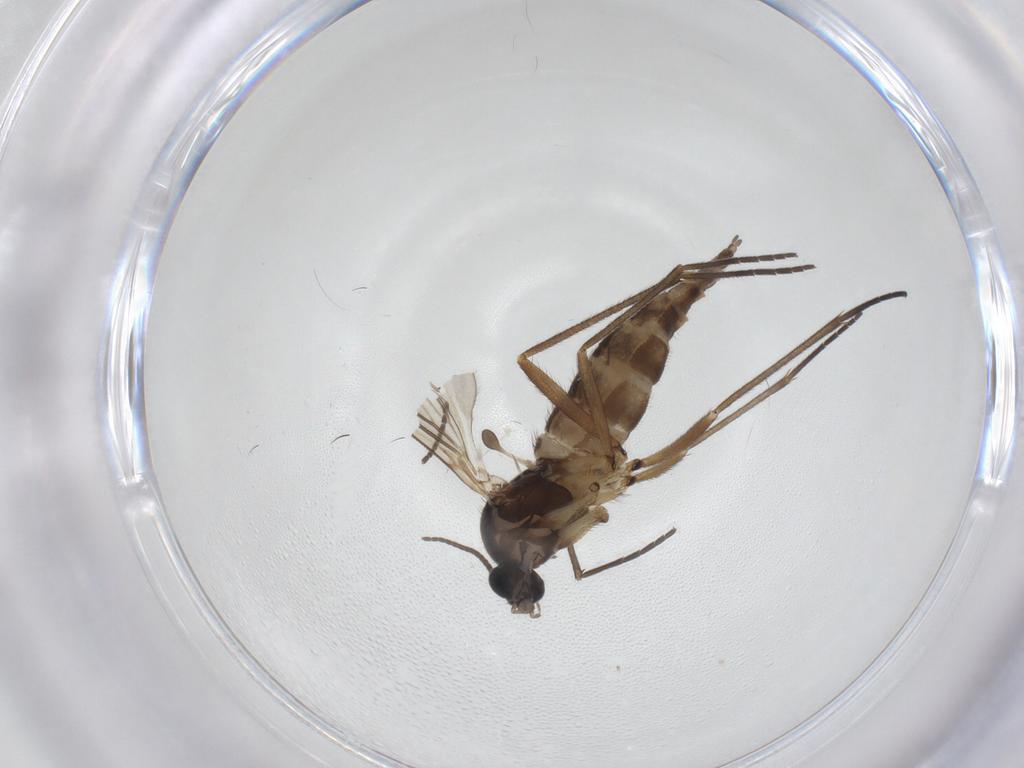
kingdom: Animalia
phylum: Arthropoda
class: Insecta
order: Diptera
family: Sciaridae
